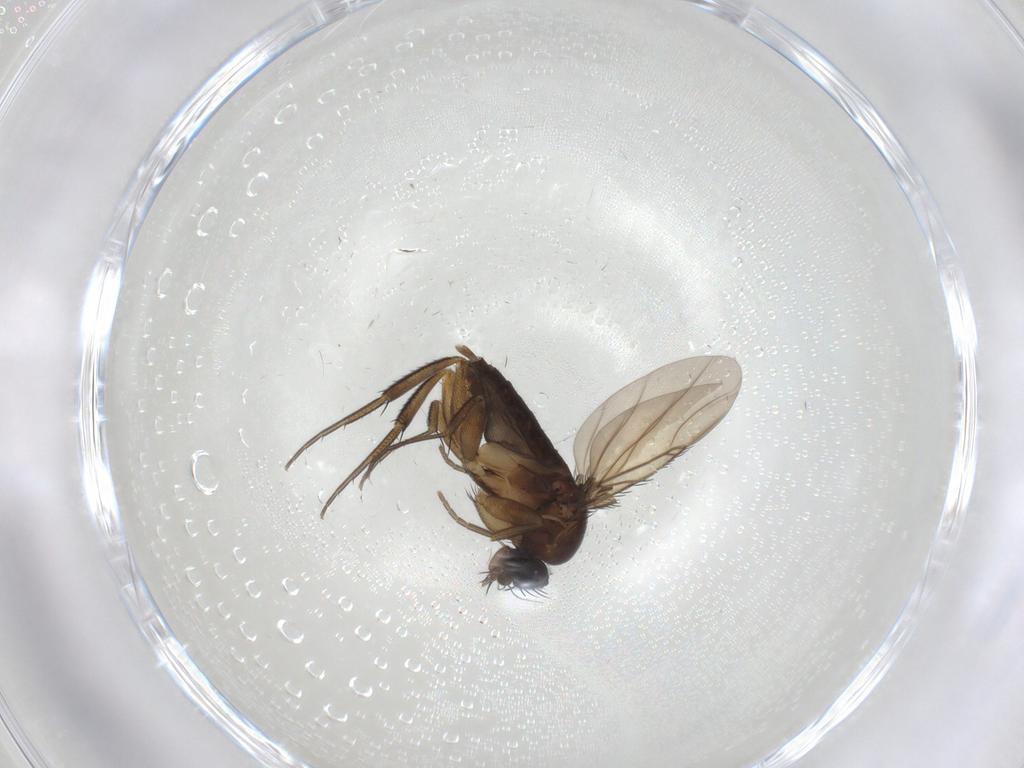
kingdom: Animalia
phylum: Arthropoda
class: Insecta
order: Diptera
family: Phoridae
